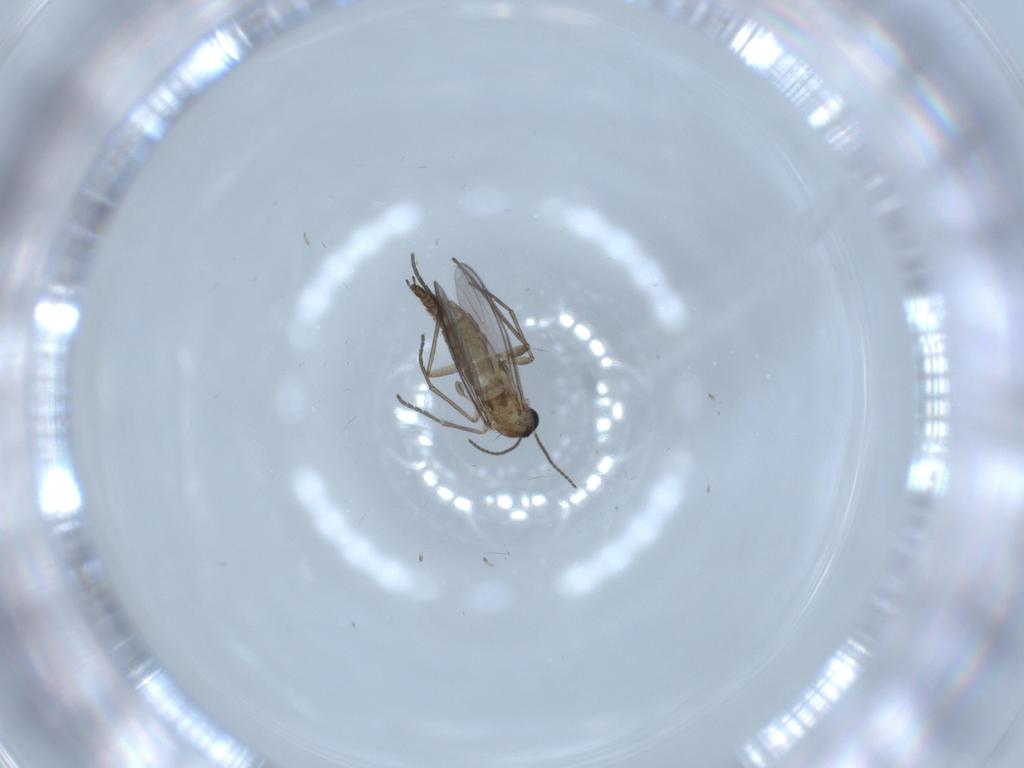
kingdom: Animalia
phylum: Arthropoda
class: Insecta
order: Diptera
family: Sciaridae
